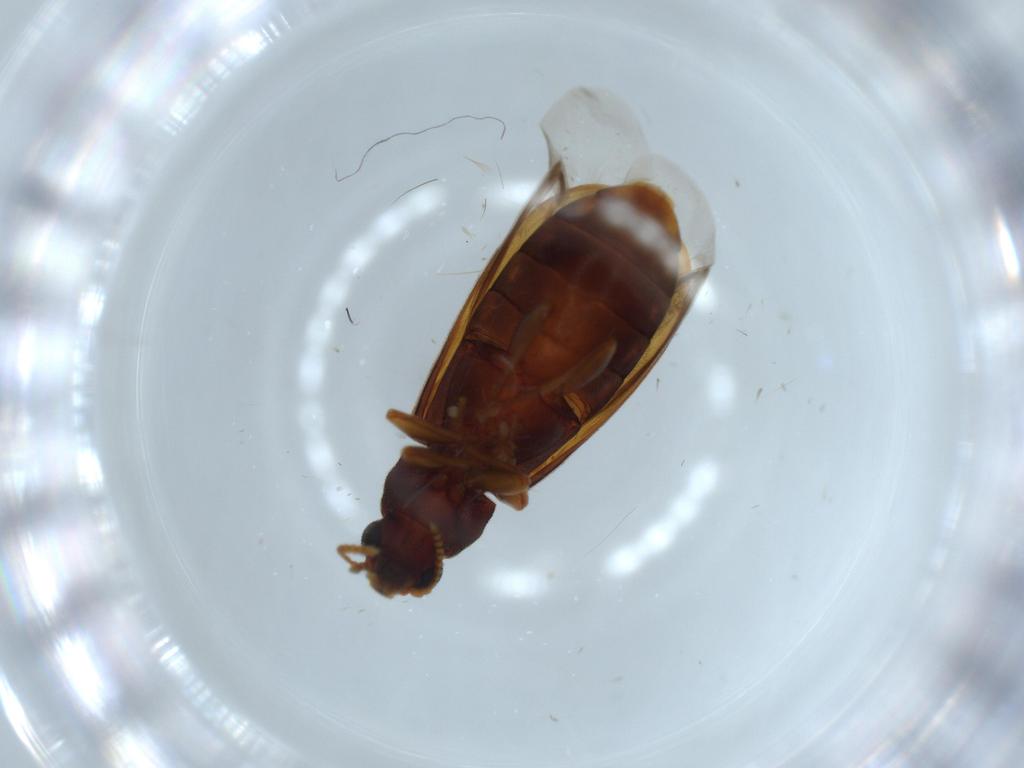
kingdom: Animalia
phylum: Arthropoda
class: Insecta
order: Coleoptera
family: Mycteridae
